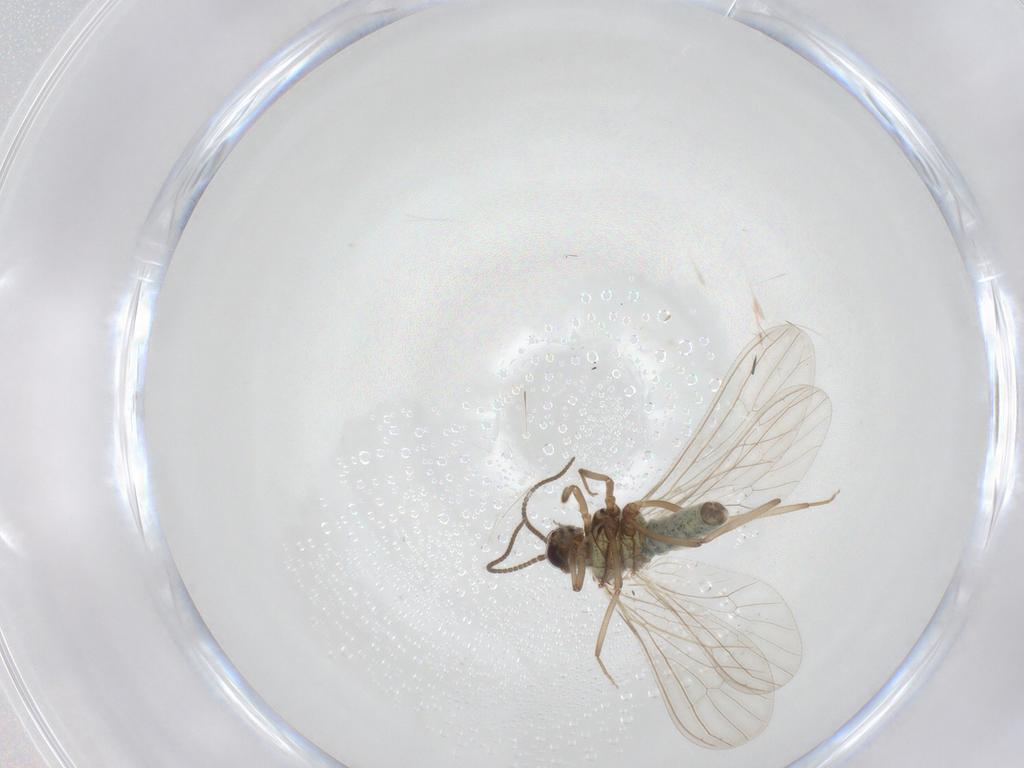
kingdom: Animalia
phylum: Arthropoda
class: Insecta
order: Neuroptera
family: Coniopterygidae
